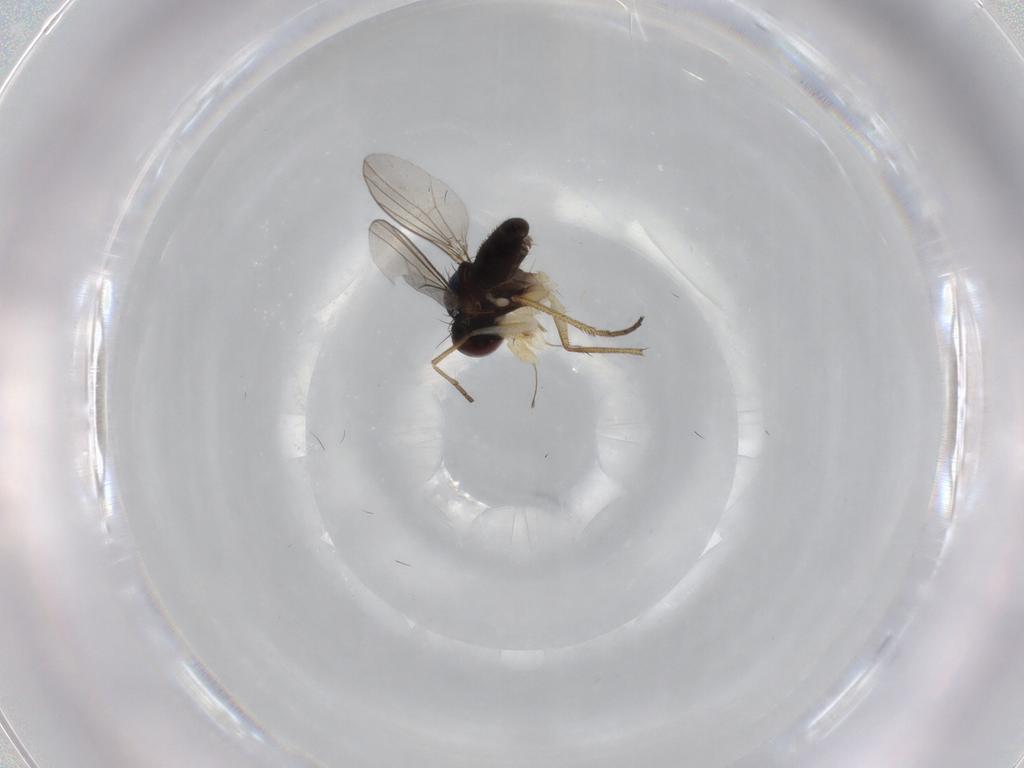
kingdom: Animalia
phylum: Arthropoda
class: Insecta
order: Diptera
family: Dolichopodidae
